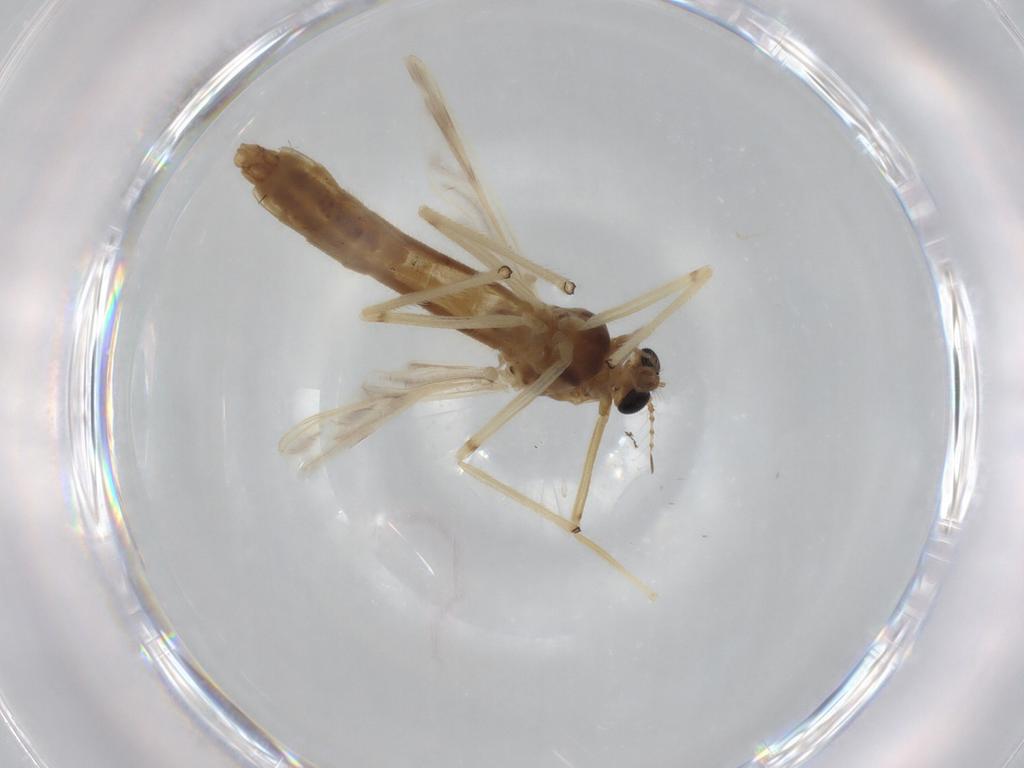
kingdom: Animalia
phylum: Arthropoda
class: Insecta
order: Diptera
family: Chironomidae
